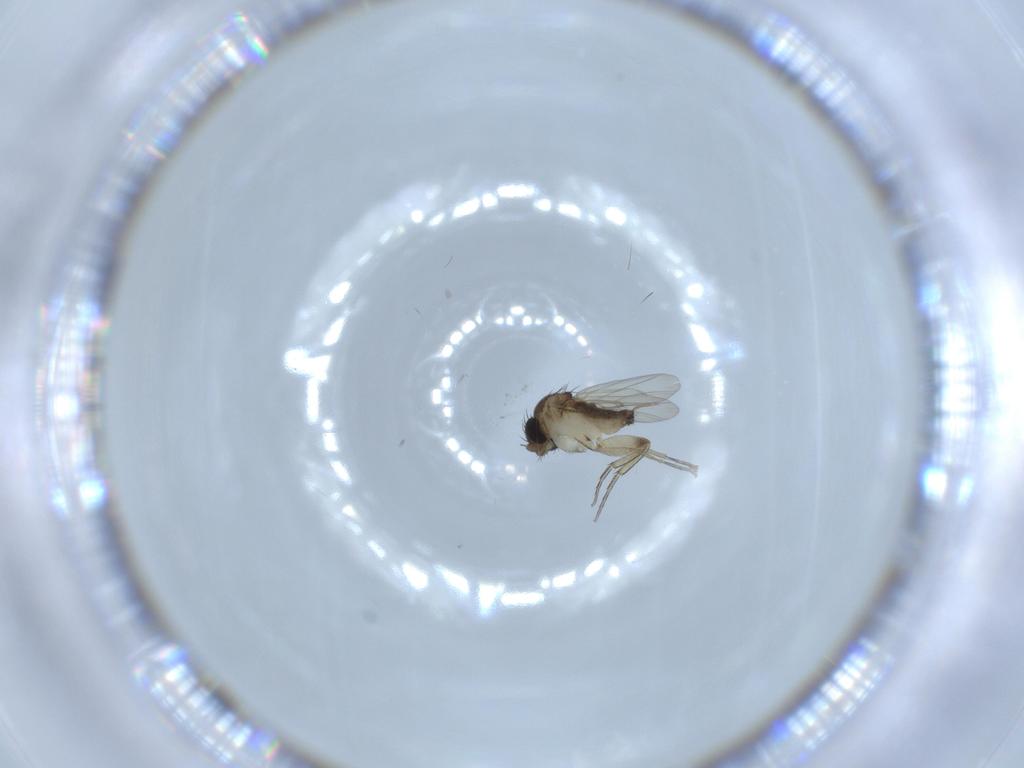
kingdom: Animalia
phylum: Arthropoda
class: Insecta
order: Diptera
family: Phoridae
